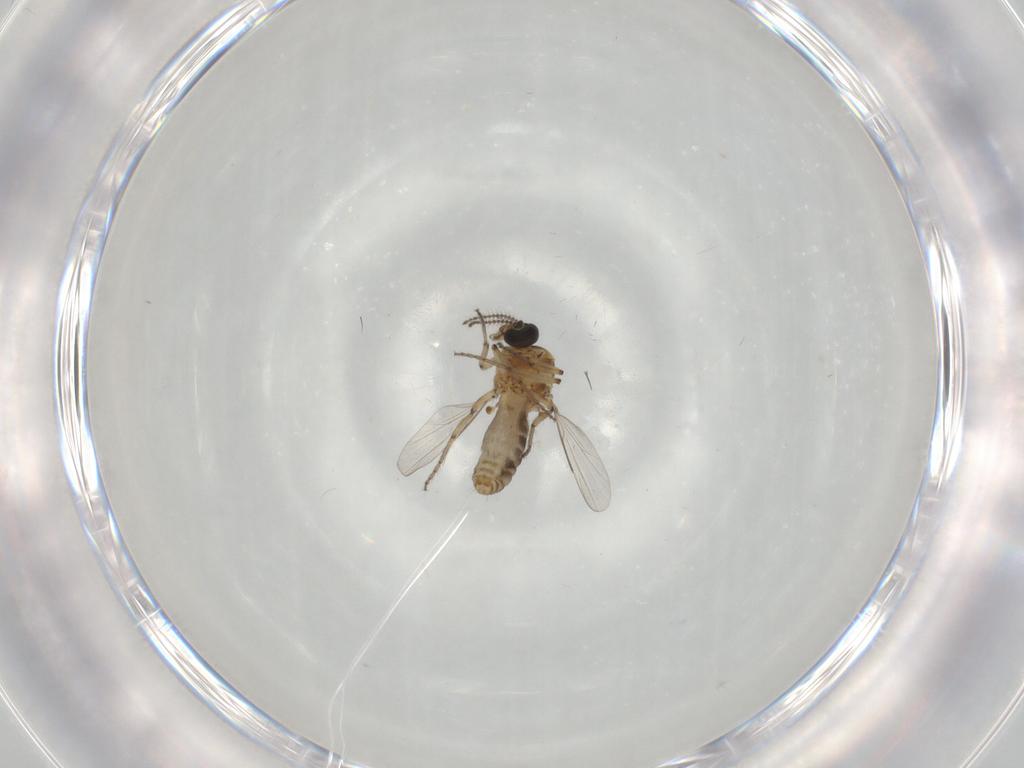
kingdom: Animalia
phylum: Arthropoda
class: Insecta
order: Diptera
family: Ceratopogonidae
